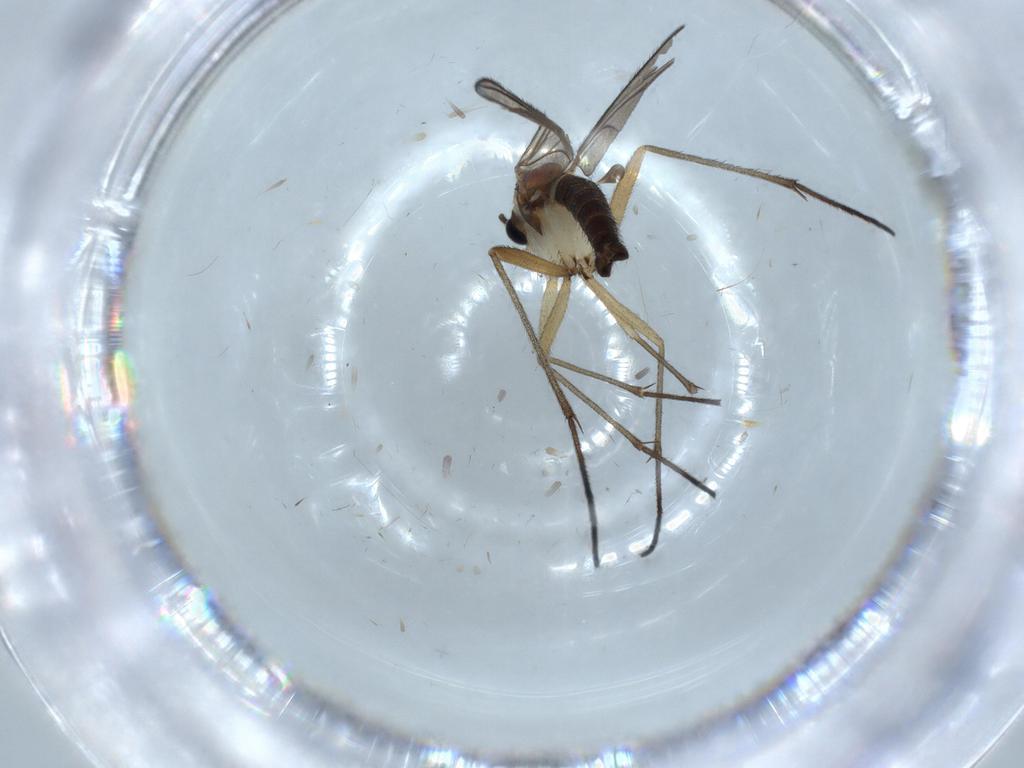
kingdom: Animalia
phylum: Arthropoda
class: Insecta
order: Diptera
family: Sciaridae
